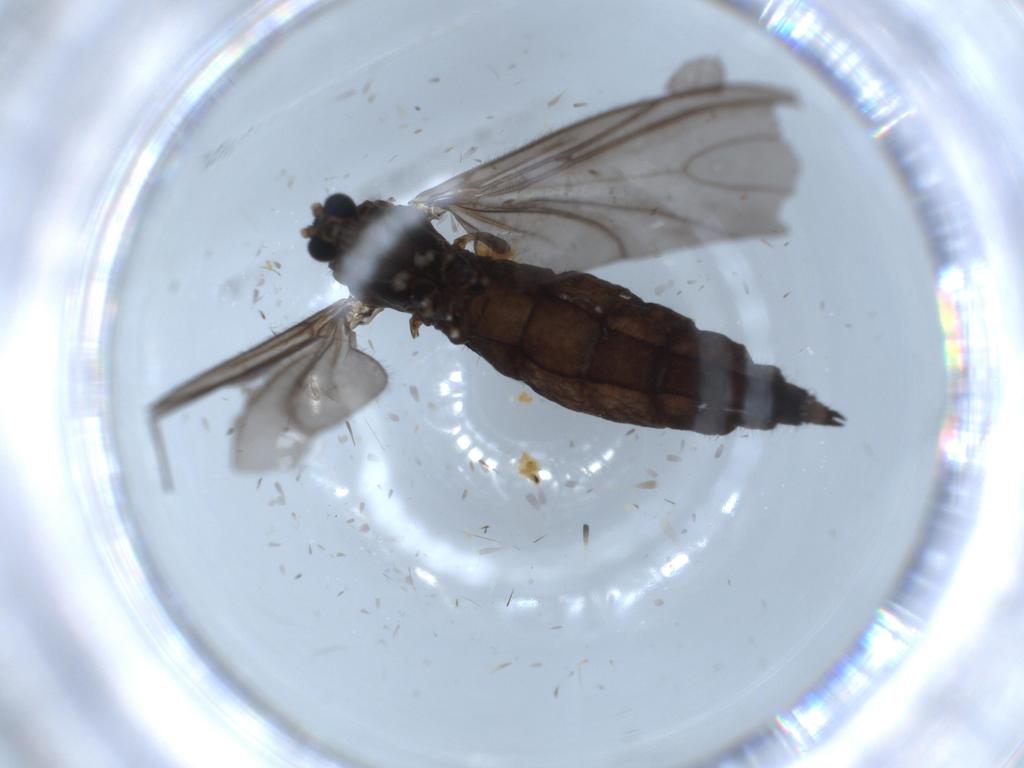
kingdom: Animalia
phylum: Arthropoda
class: Insecta
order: Diptera
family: Sciaridae
